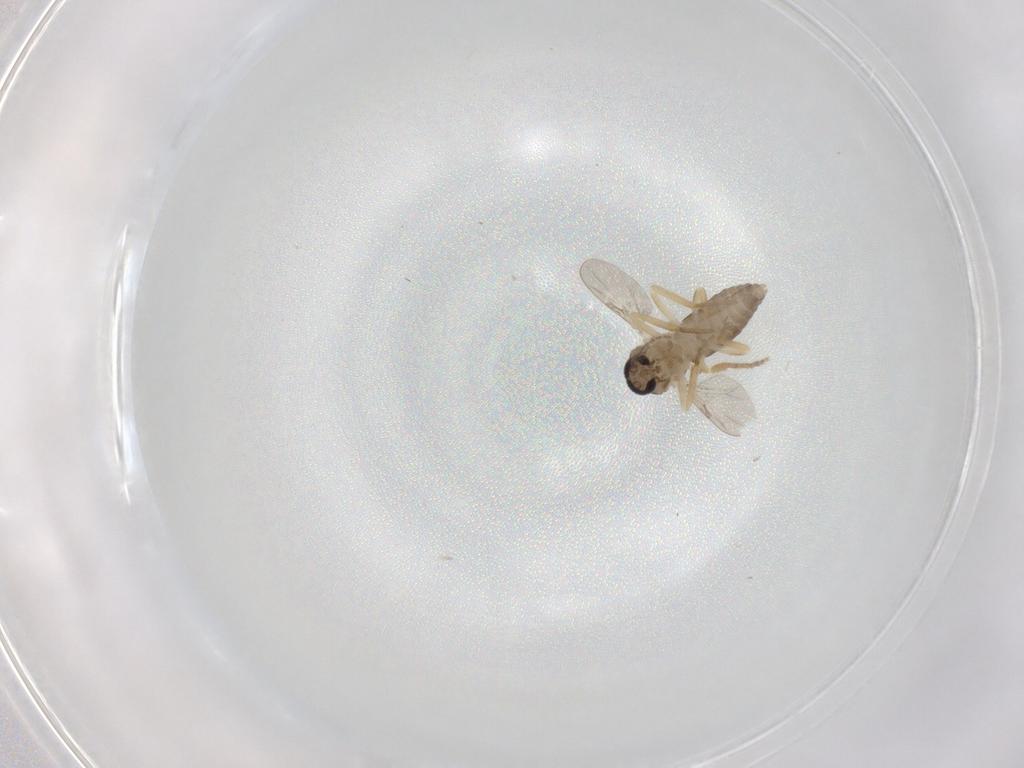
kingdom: Animalia
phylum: Arthropoda
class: Insecta
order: Diptera
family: Ceratopogonidae
